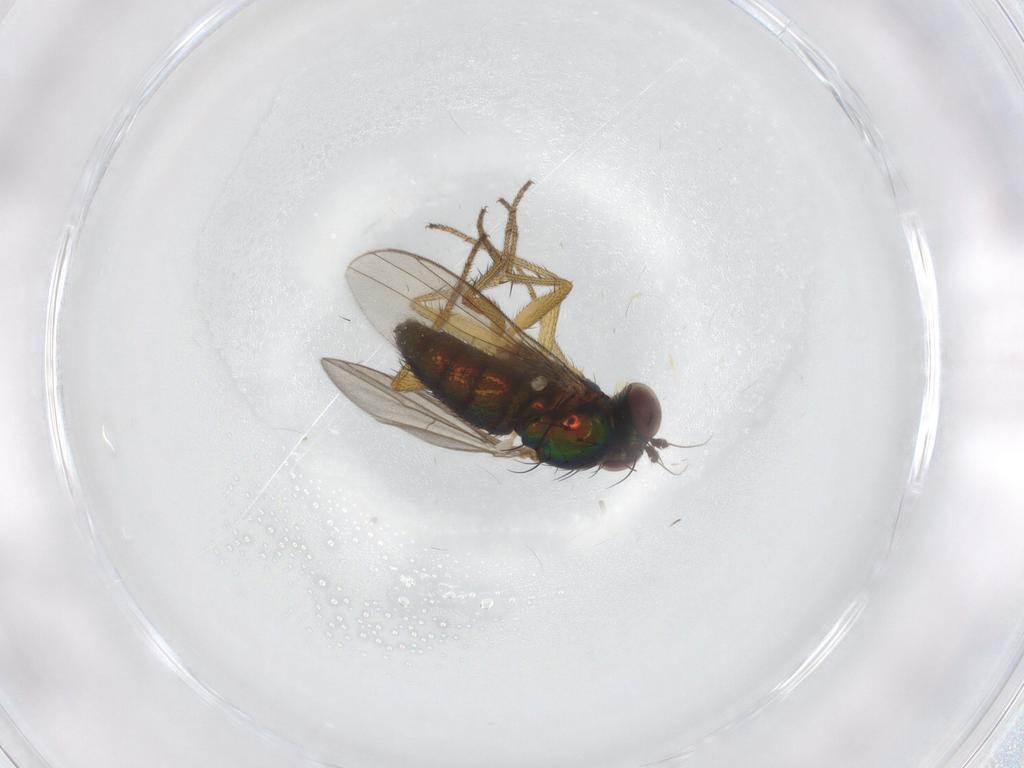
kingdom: Animalia
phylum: Arthropoda
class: Insecta
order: Diptera
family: Dolichopodidae
